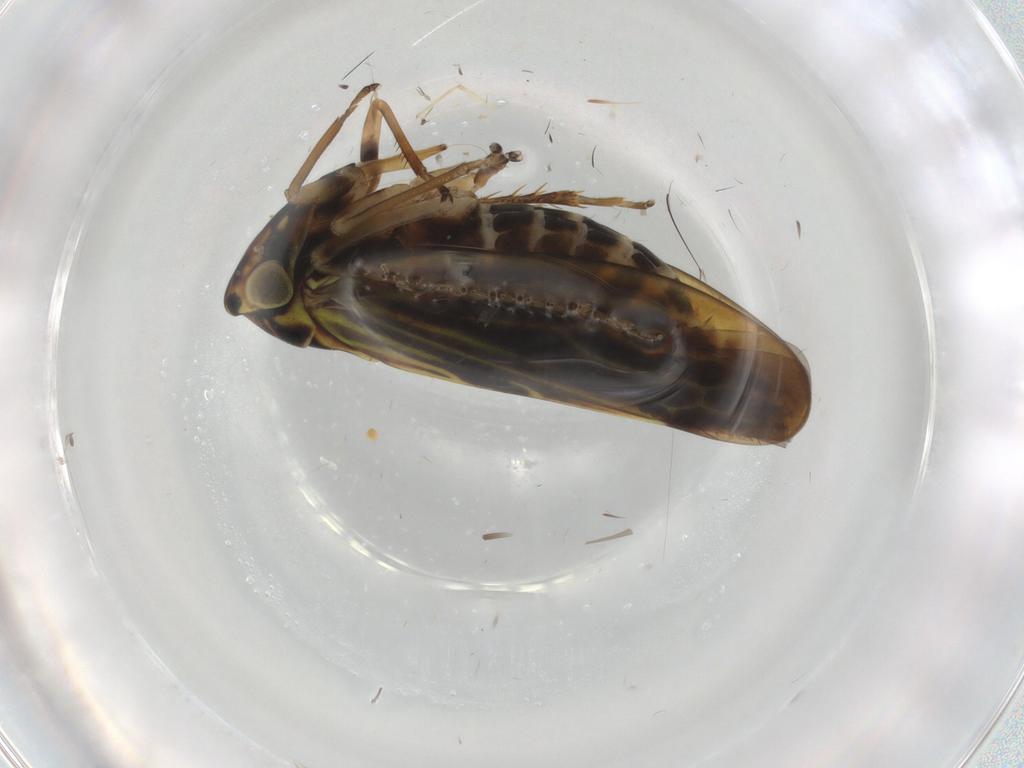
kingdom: Animalia
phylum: Arthropoda
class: Insecta
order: Hemiptera
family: Cicadellidae
